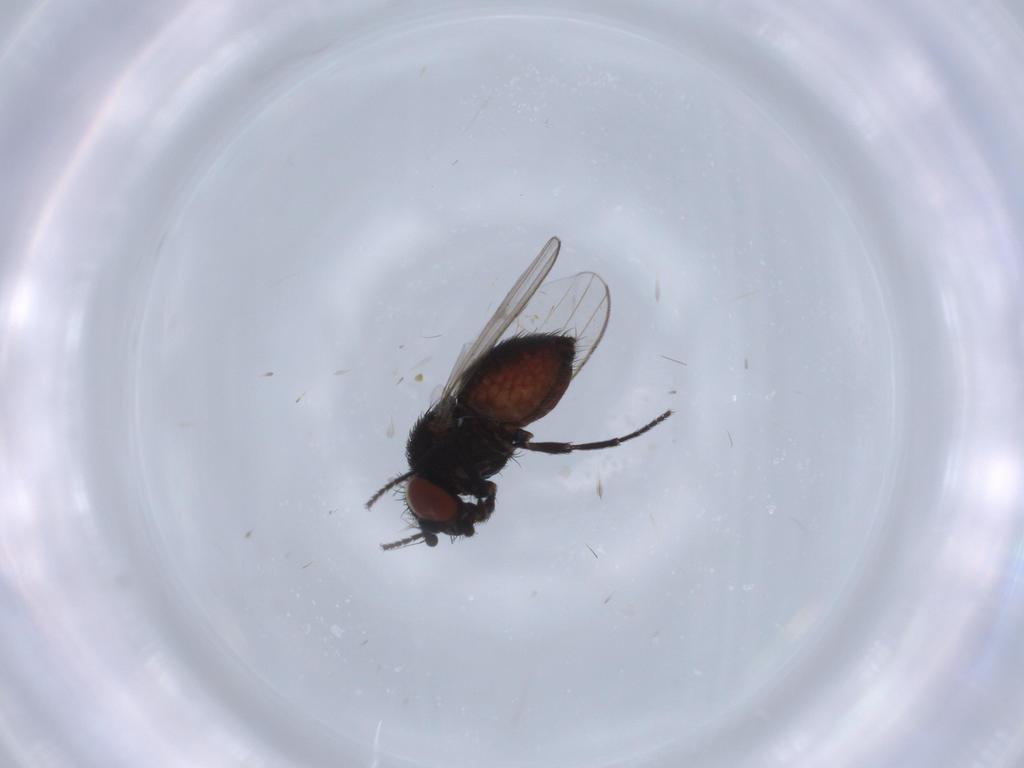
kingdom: Animalia
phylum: Arthropoda
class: Insecta
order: Diptera
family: Milichiidae
